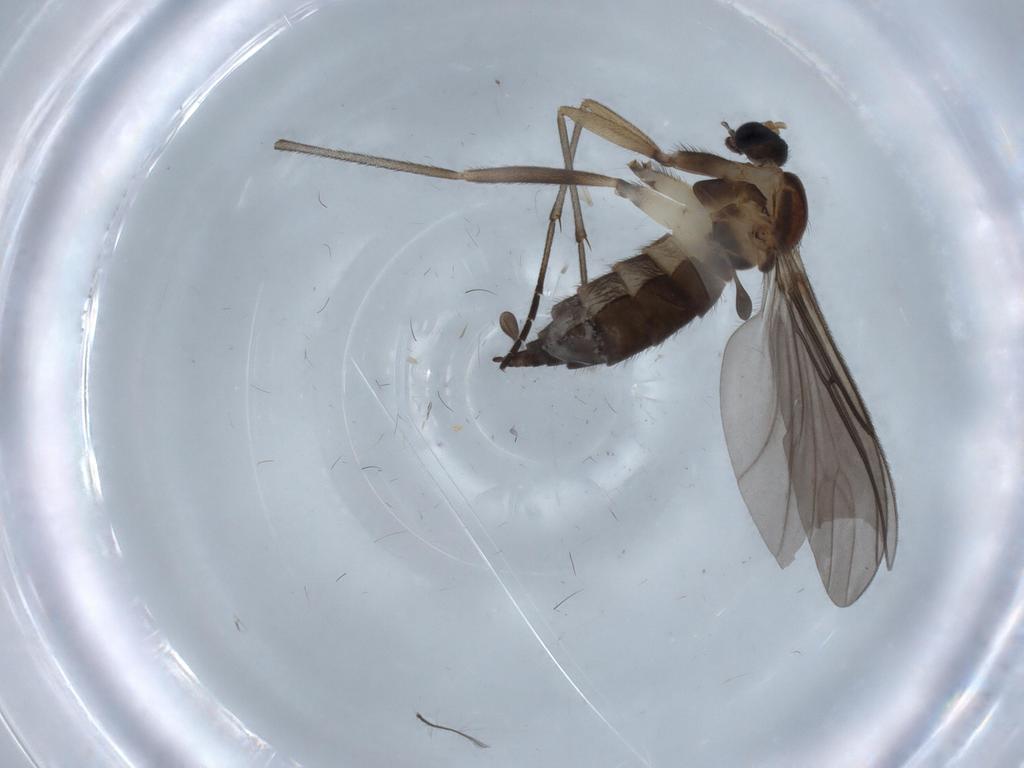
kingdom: Animalia
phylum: Arthropoda
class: Insecta
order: Diptera
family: Sciaridae
